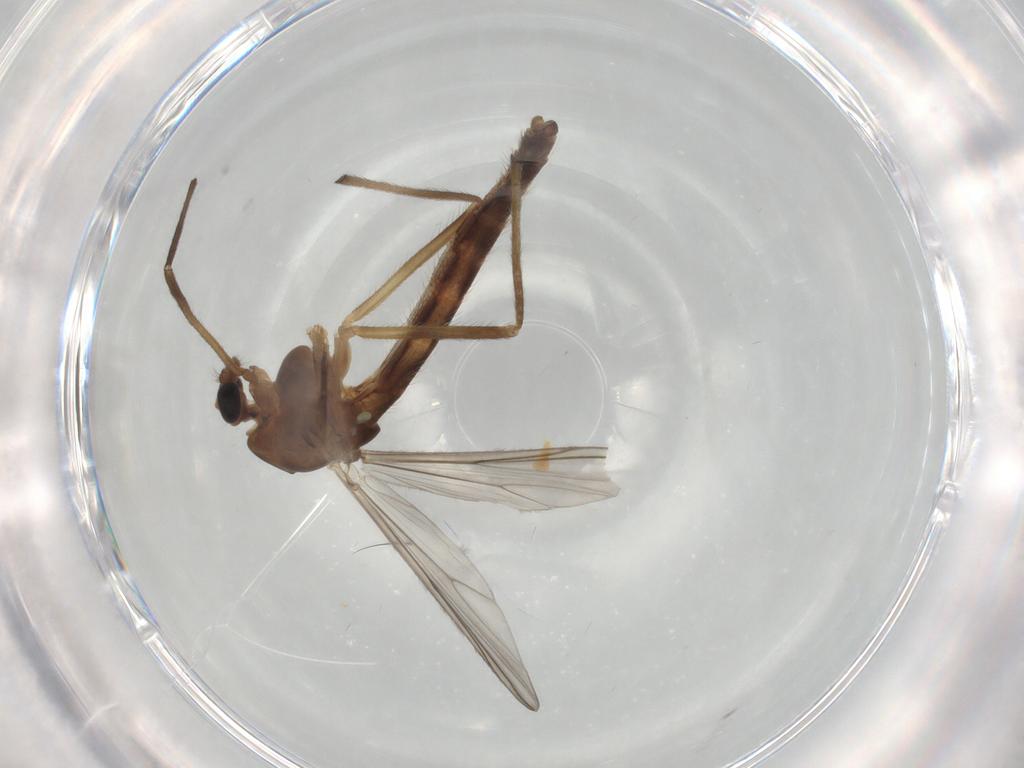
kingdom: Animalia
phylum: Arthropoda
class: Insecta
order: Diptera
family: Chironomidae
